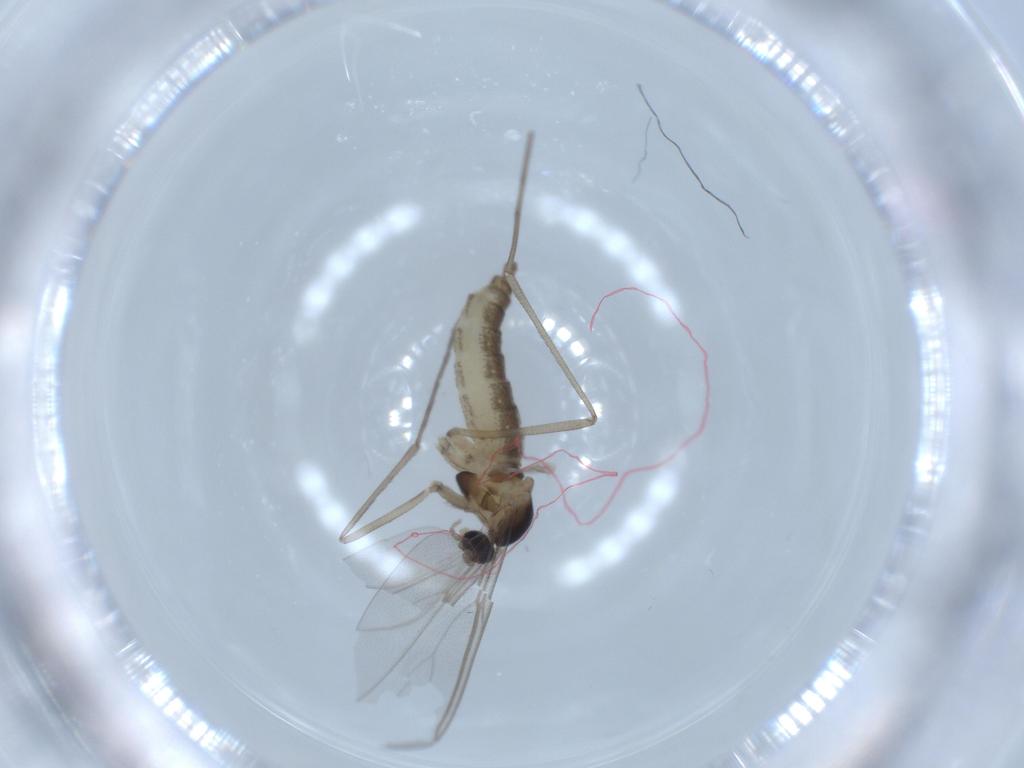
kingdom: Animalia
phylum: Arthropoda
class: Insecta
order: Diptera
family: Cecidomyiidae
